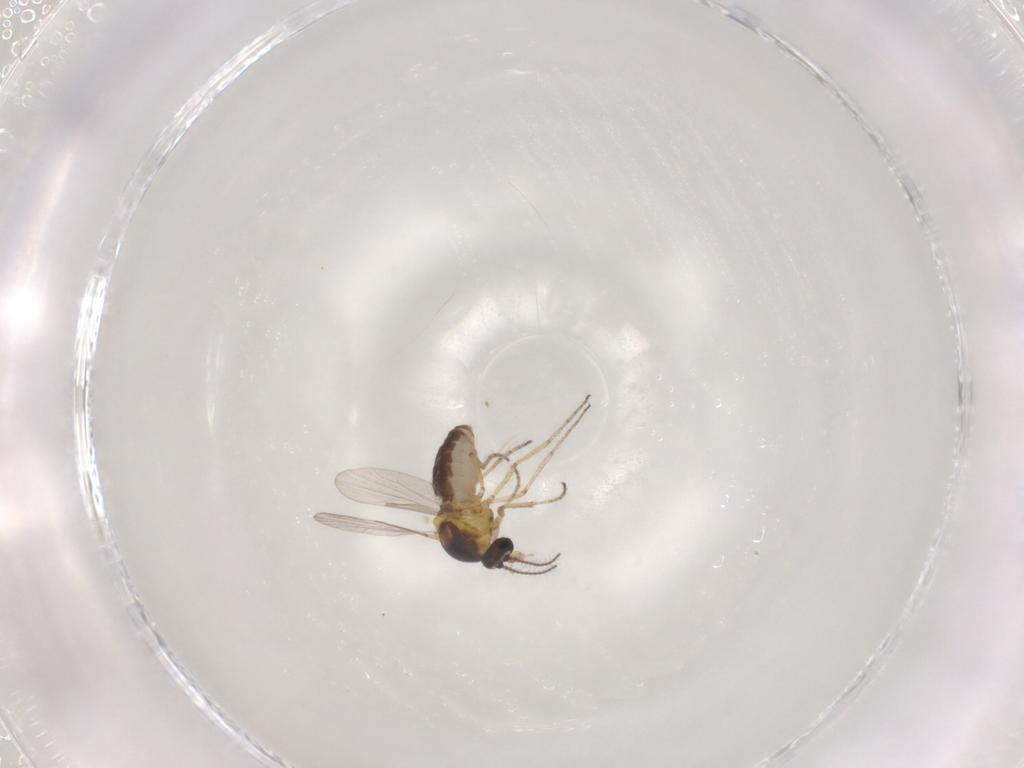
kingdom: Animalia
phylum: Arthropoda
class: Insecta
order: Diptera
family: Ceratopogonidae
